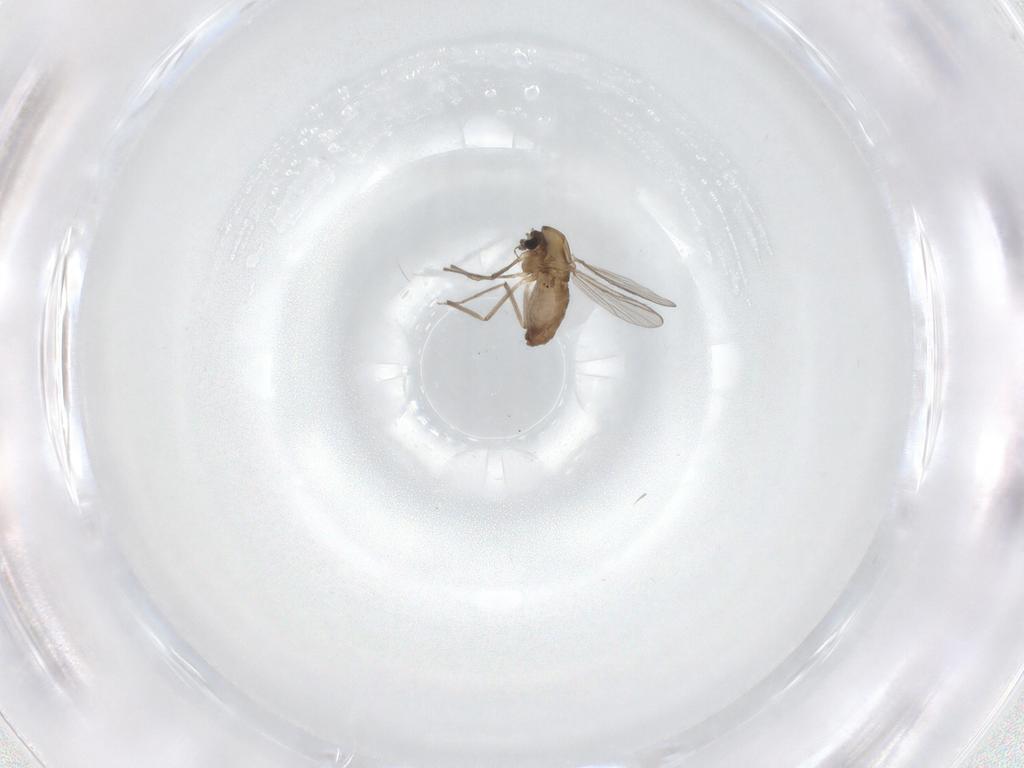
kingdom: Animalia
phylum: Arthropoda
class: Insecta
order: Diptera
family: Chironomidae
